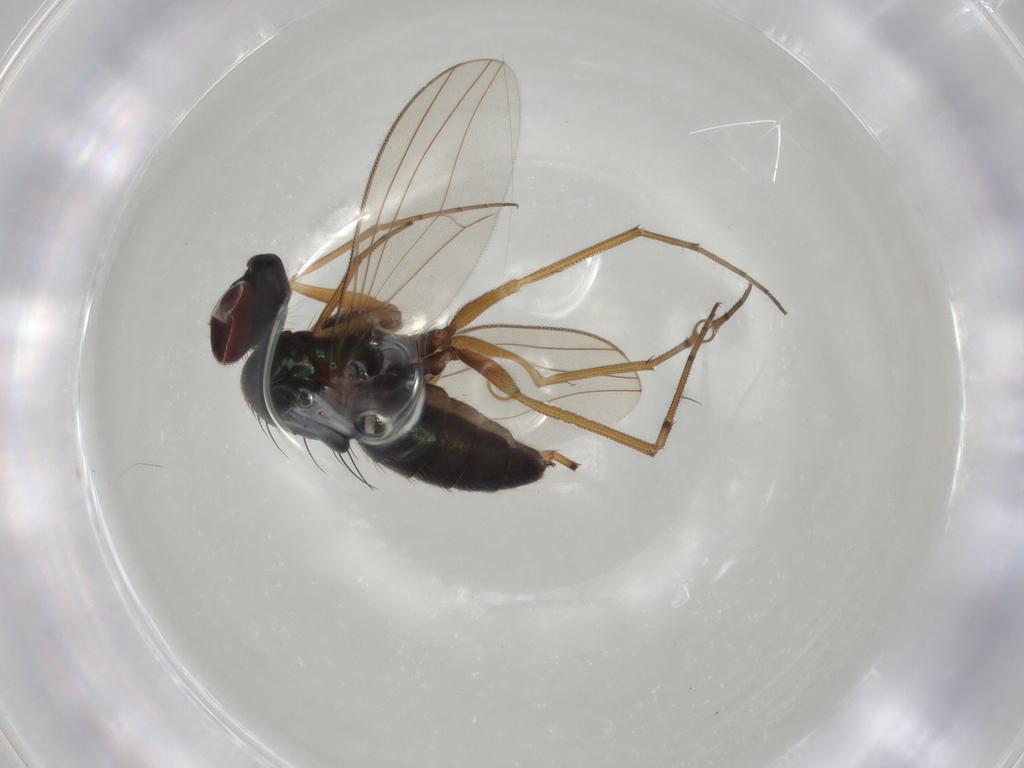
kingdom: Animalia
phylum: Arthropoda
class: Insecta
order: Diptera
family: Dolichopodidae
